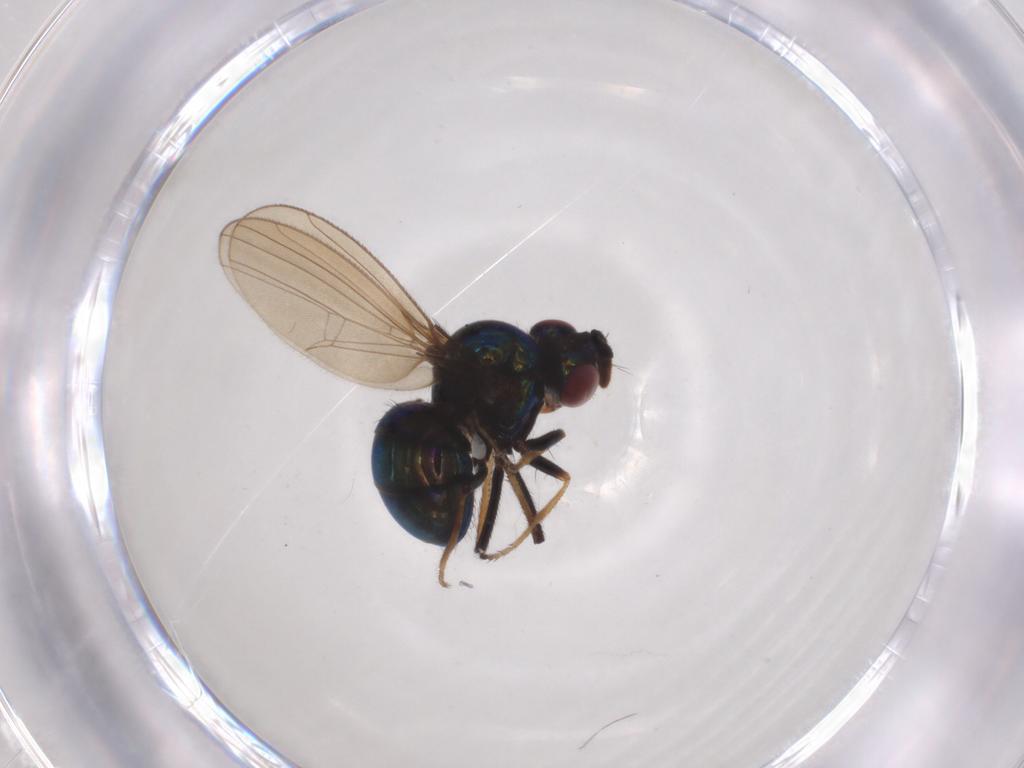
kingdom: Animalia
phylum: Arthropoda
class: Insecta
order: Diptera
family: Ephydridae
